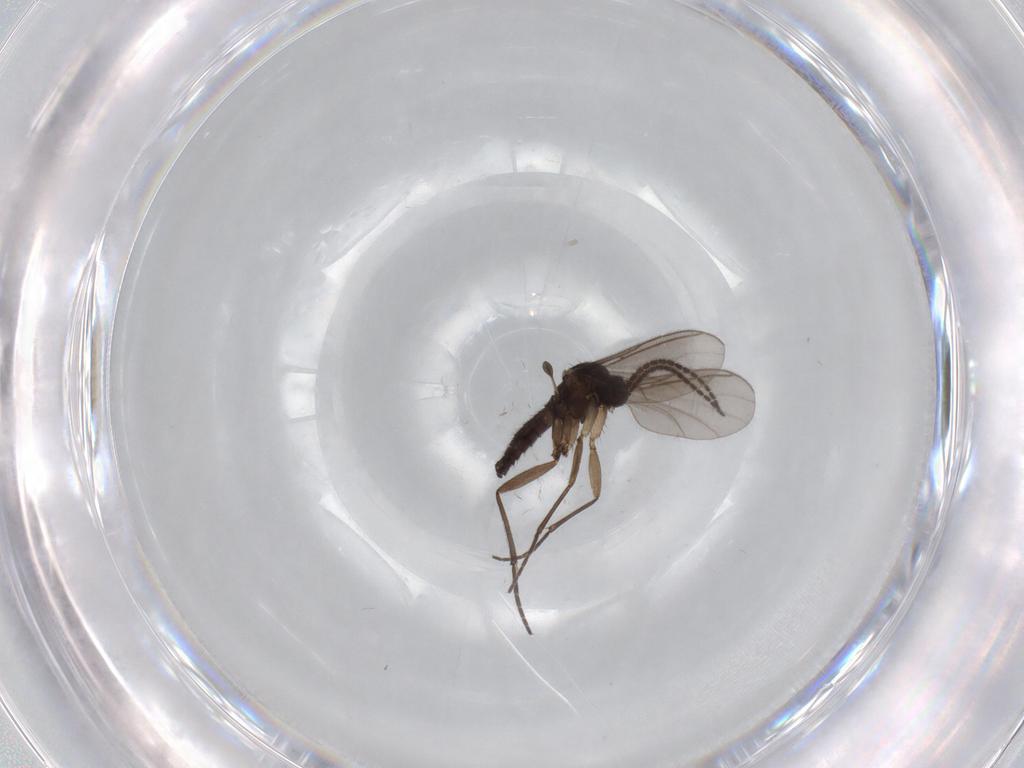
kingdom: Animalia
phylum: Arthropoda
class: Insecta
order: Diptera
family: Sciaridae
